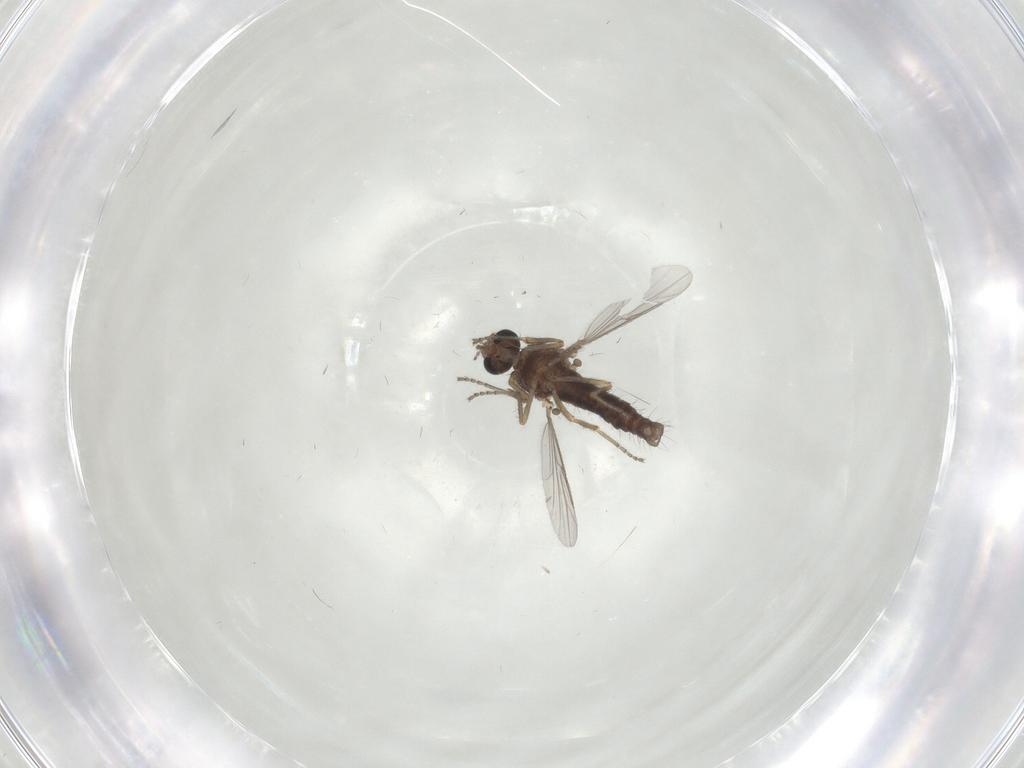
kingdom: Animalia
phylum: Arthropoda
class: Insecta
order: Diptera
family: Ceratopogonidae
